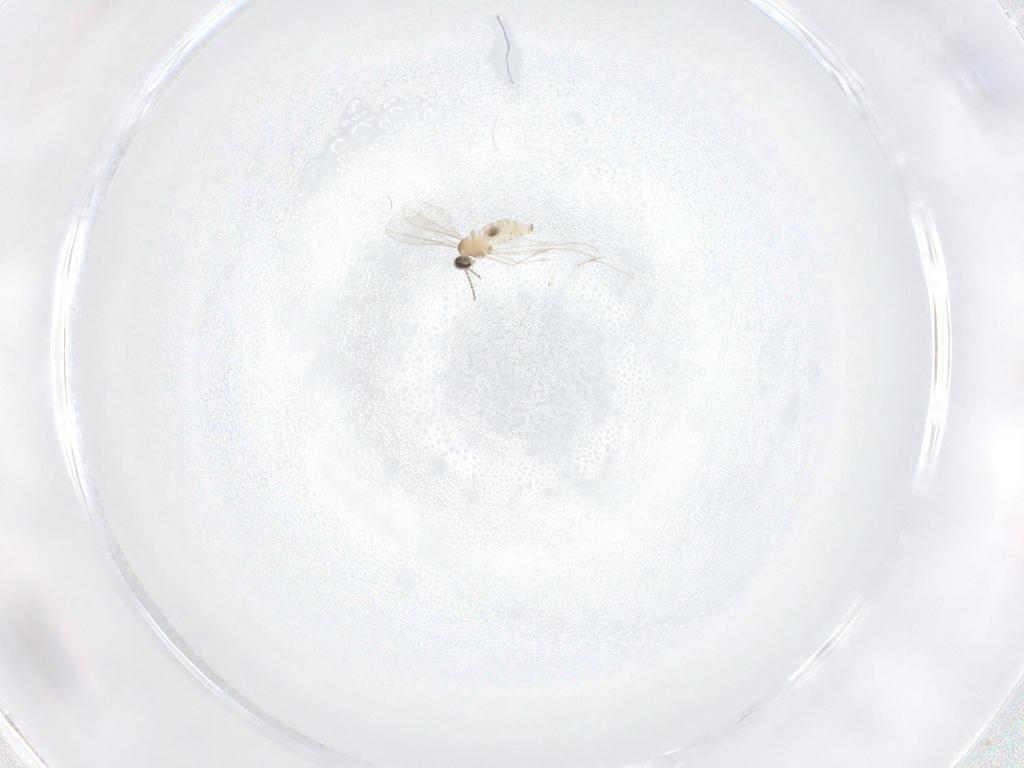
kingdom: Animalia
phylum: Arthropoda
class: Insecta
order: Diptera
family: Cecidomyiidae
